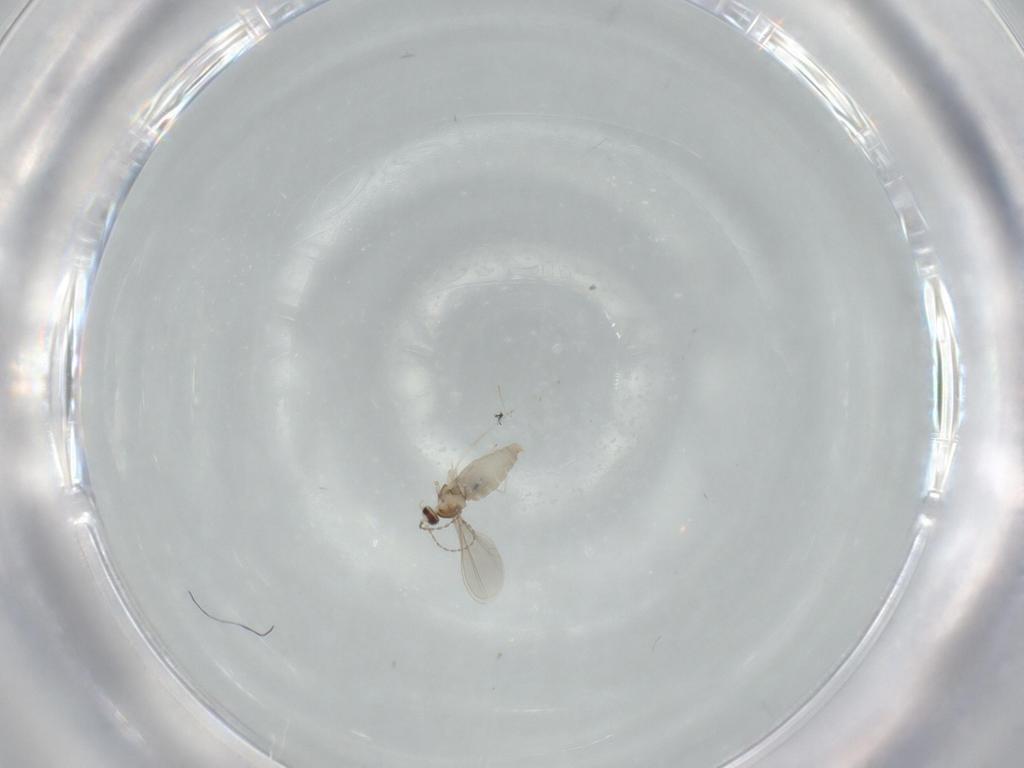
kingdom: Animalia
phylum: Arthropoda
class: Insecta
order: Diptera
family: Cecidomyiidae
